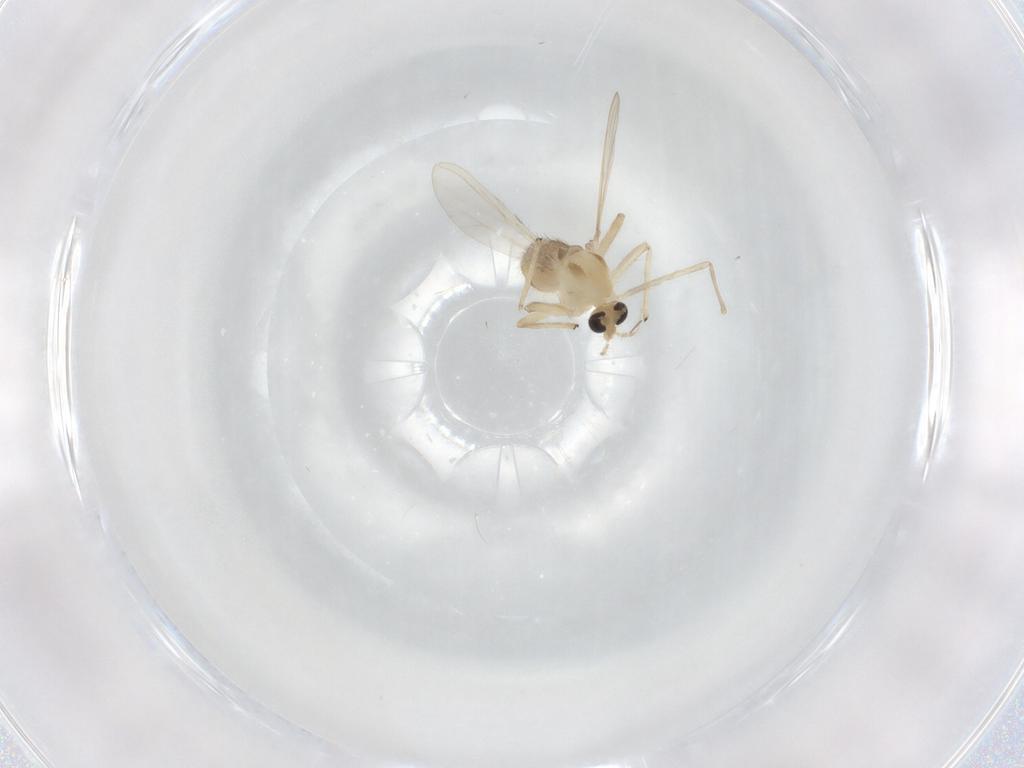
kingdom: Animalia
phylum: Arthropoda
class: Insecta
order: Diptera
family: Chironomidae
